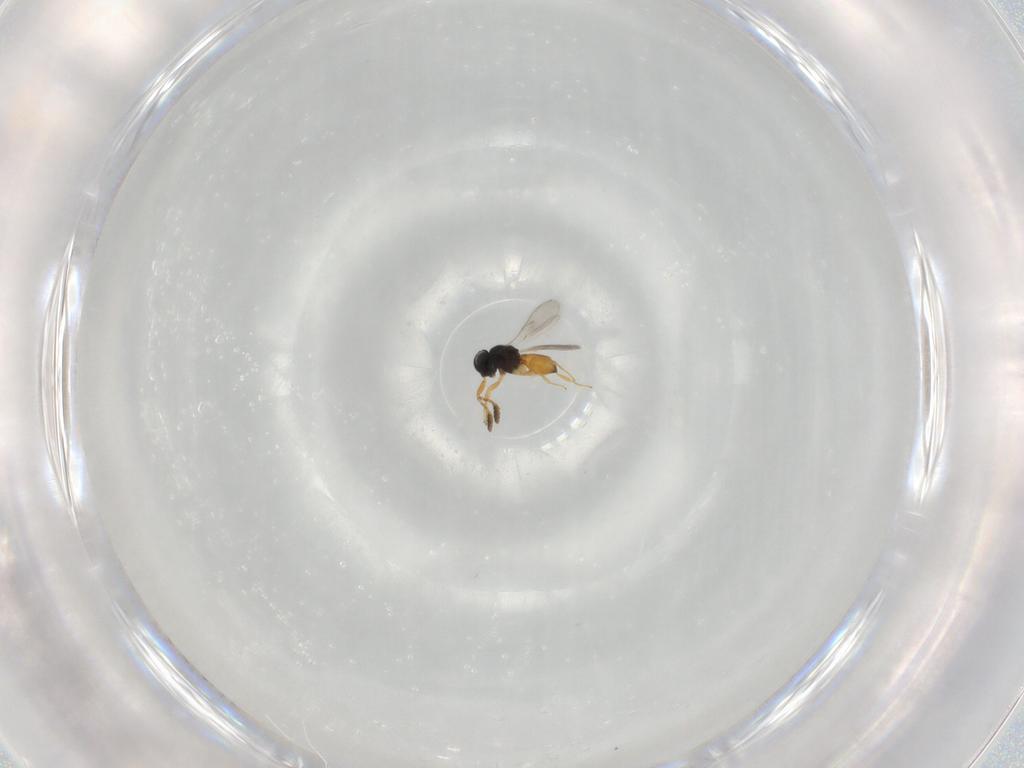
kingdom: Animalia
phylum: Arthropoda
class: Insecta
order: Hymenoptera
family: Scelionidae
